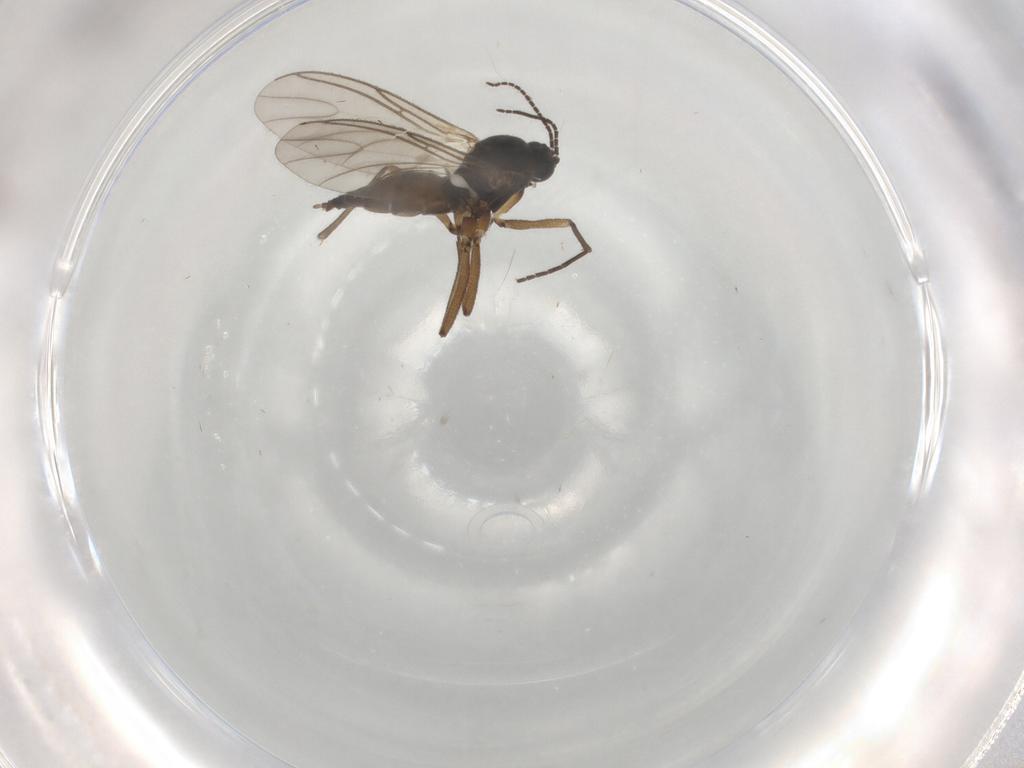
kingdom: Animalia
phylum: Arthropoda
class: Insecta
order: Diptera
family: Sciaridae
